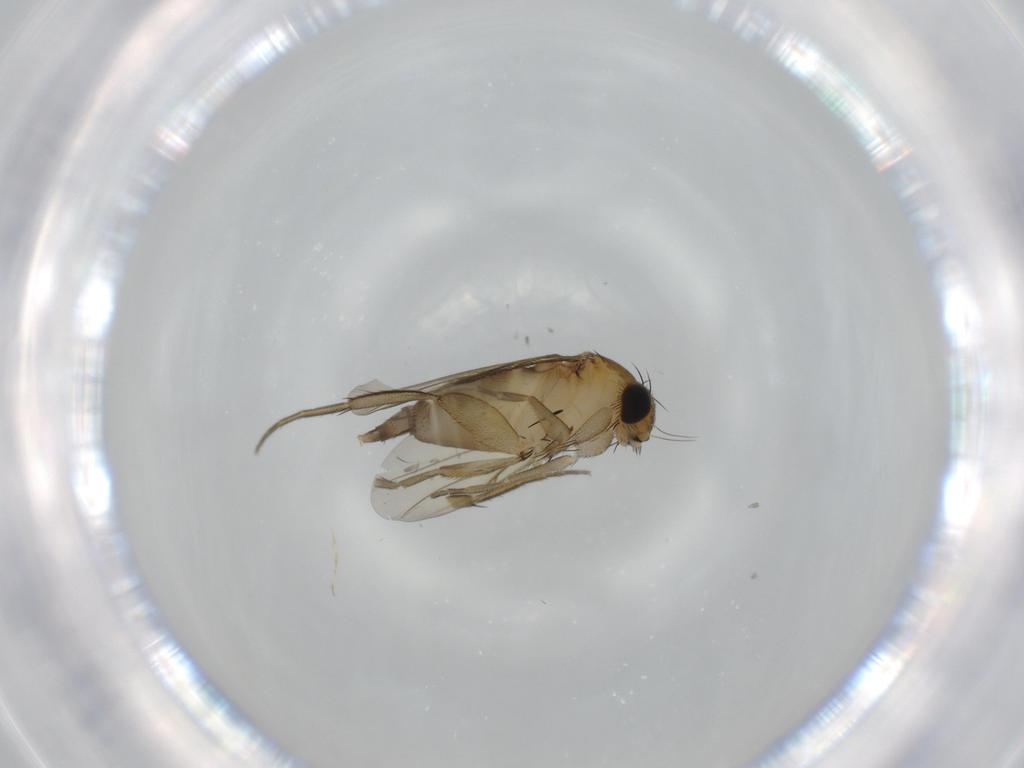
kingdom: Animalia
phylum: Arthropoda
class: Insecta
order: Diptera
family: Phoridae
